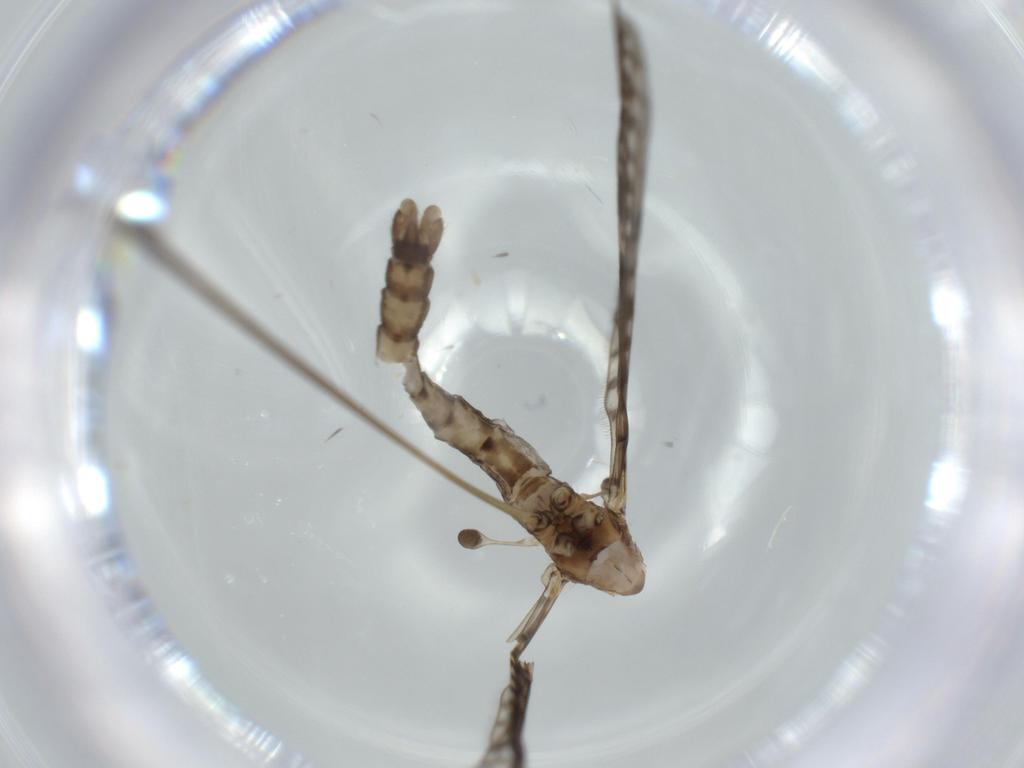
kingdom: Animalia
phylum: Arthropoda
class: Insecta
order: Diptera
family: Limoniidae
